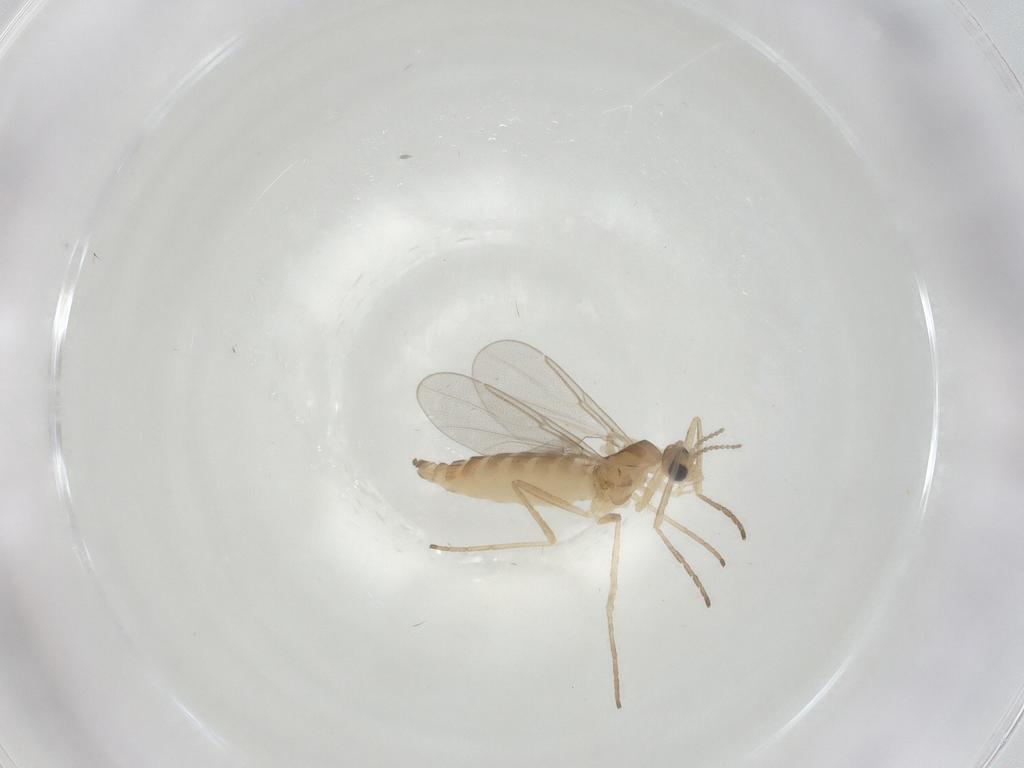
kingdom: Animalia
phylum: Arthropoda
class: Insecta
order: Diptera
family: Cecidomyiidae
